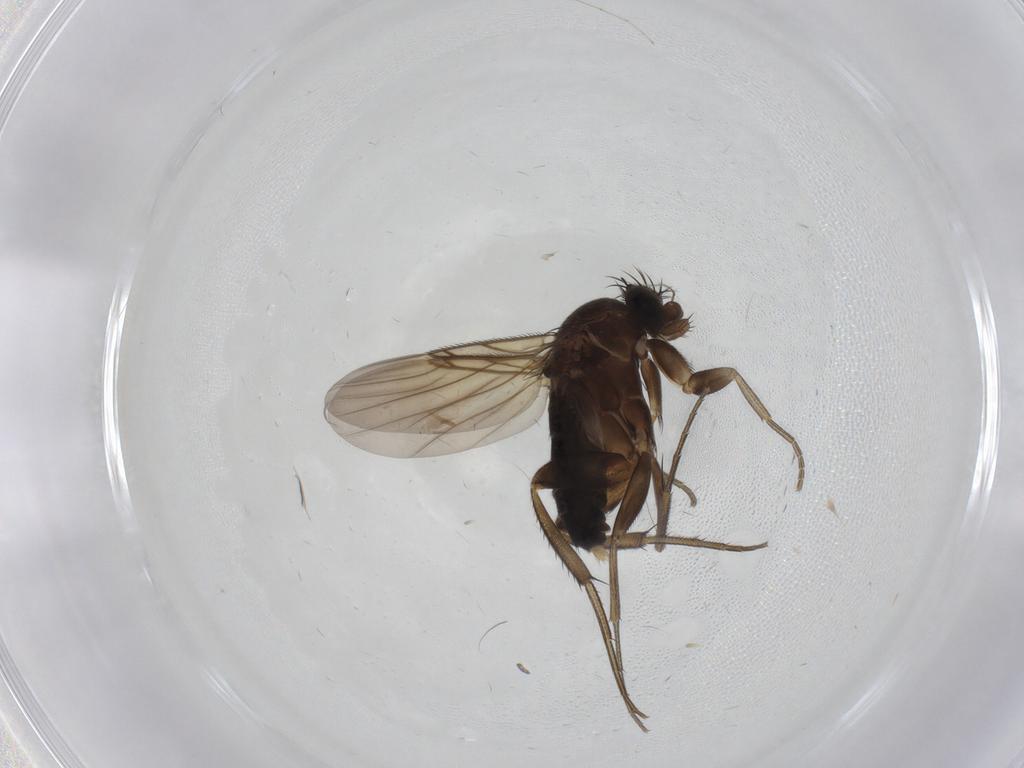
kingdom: Animalia
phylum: Arthropoda
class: Insecta
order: Diptera
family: Phoridae
